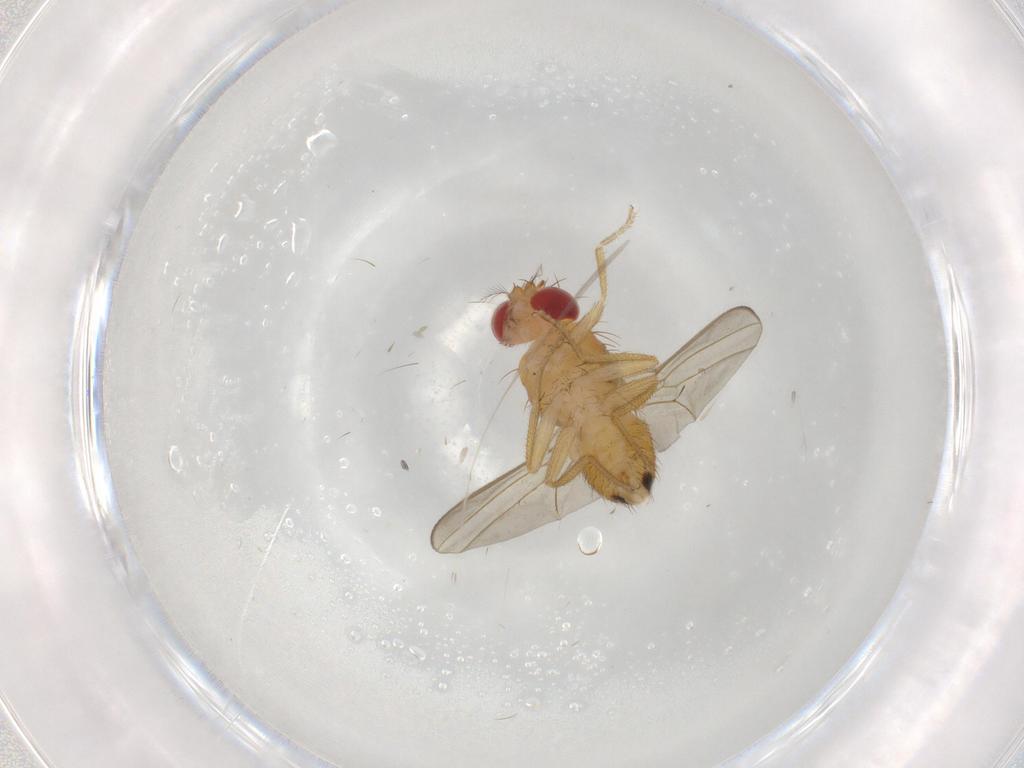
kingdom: Animalia
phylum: Arthropoda
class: Insecta
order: Diptera
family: Drosophilidae
